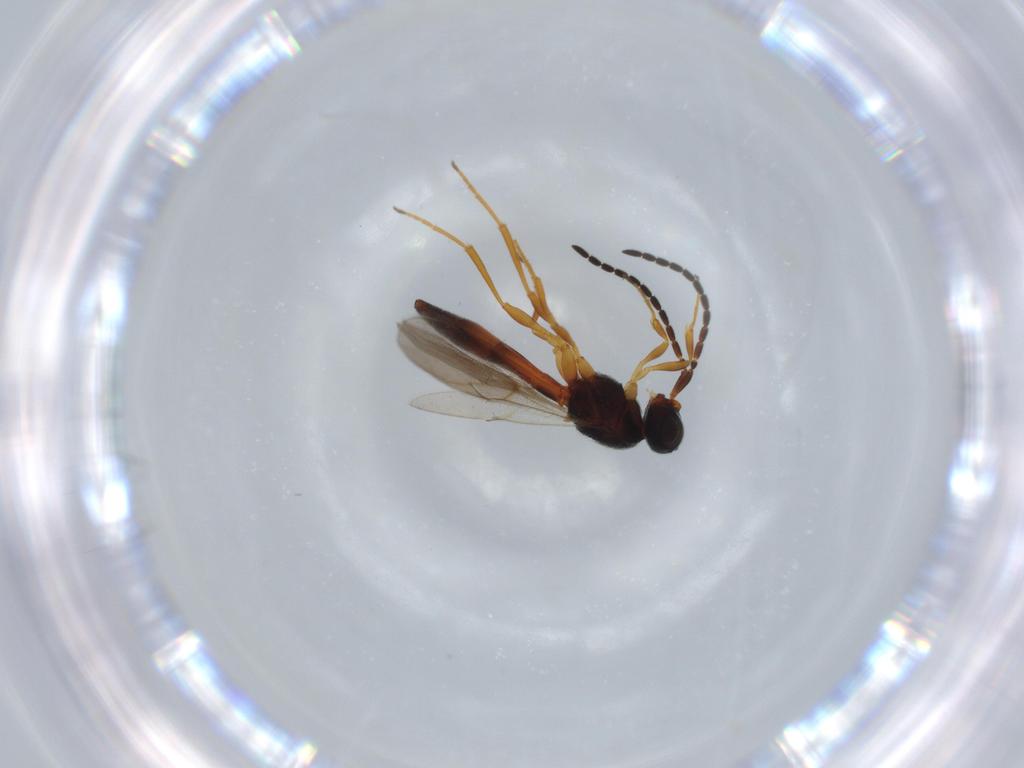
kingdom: Animalia
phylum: Arthropoda
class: Insecta
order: Hymenoptera
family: Scelionidae
